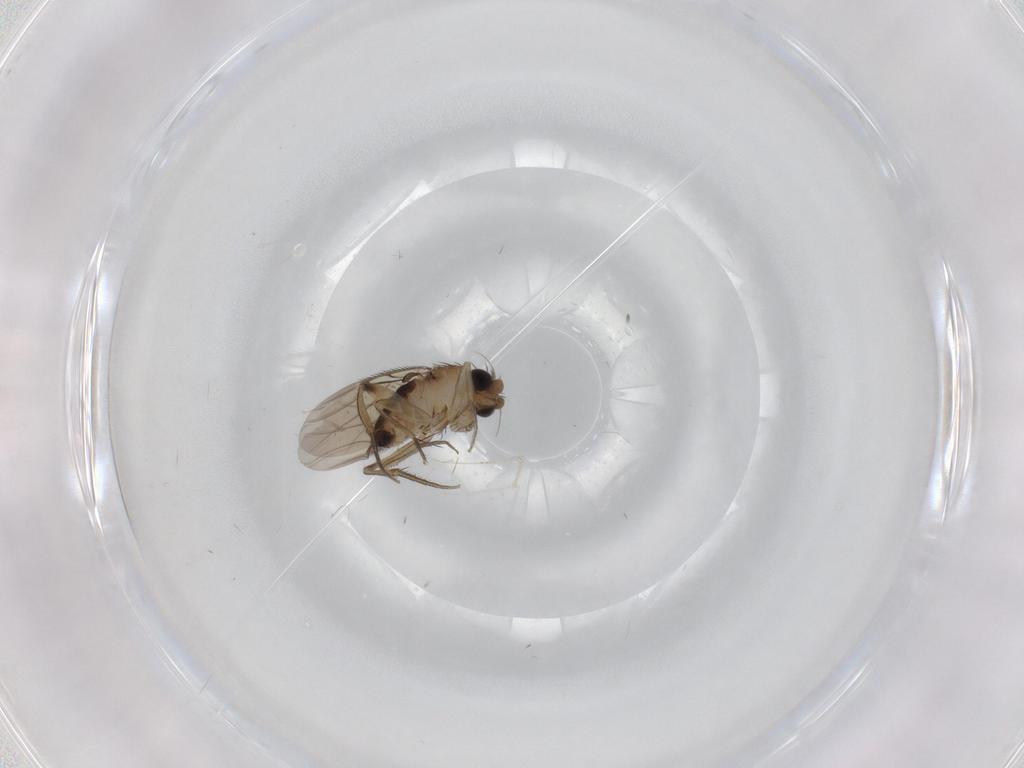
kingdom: Animalia
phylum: Arthropoda
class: Insecta
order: Diptera
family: Phoridae
